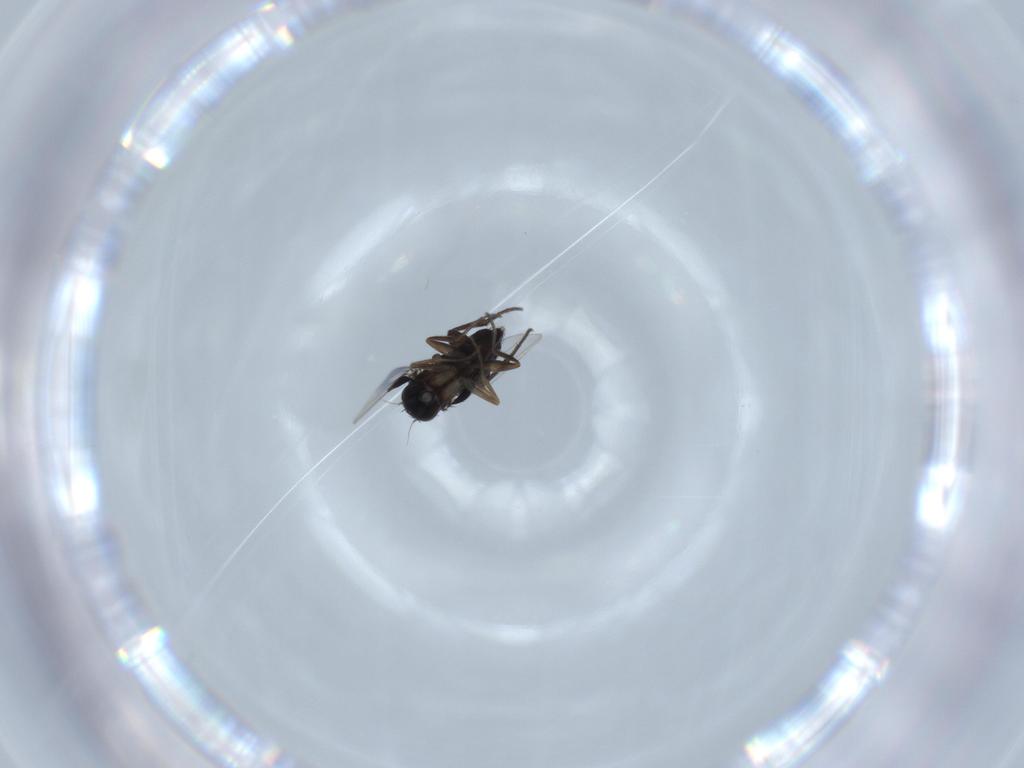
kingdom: Animalia
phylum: Arthropoda
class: Insecta
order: Diptera
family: Phoridae
